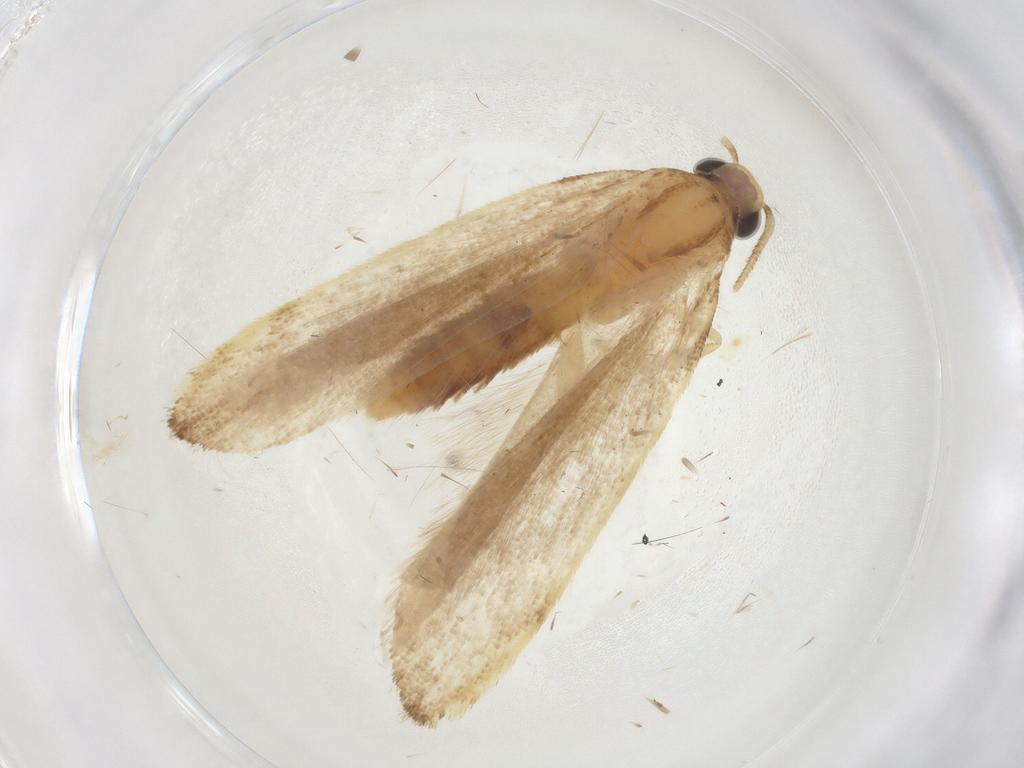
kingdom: Animalia
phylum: Arthropoda
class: Insecta
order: Lepidoptera
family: Gelechiidae
